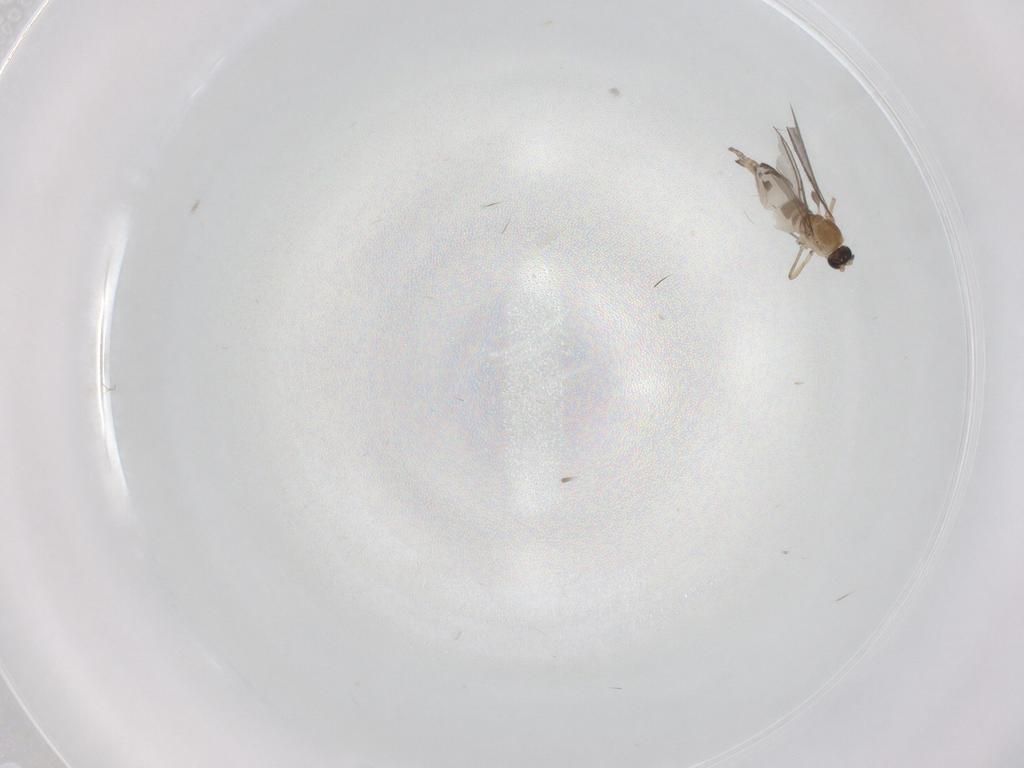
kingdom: Animalia
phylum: Arthropoda
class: Insecta
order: Diptera
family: Sciaridae
